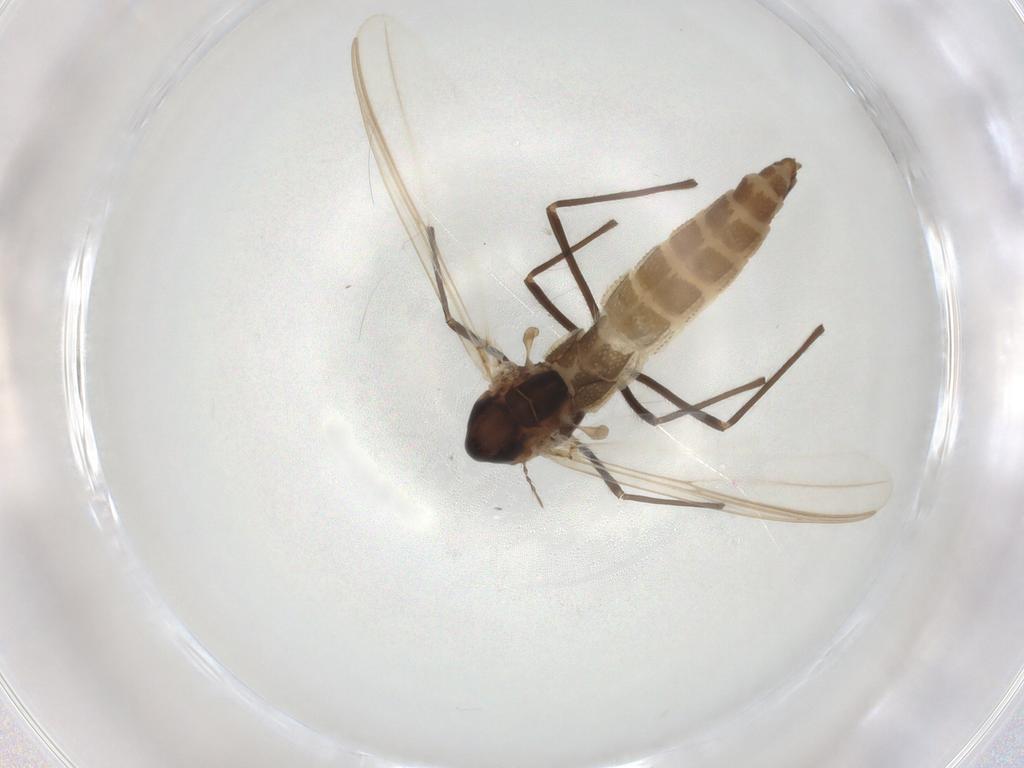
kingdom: Animalia
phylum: Arthropoda
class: Insecta
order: Diptera
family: Chironomidae
